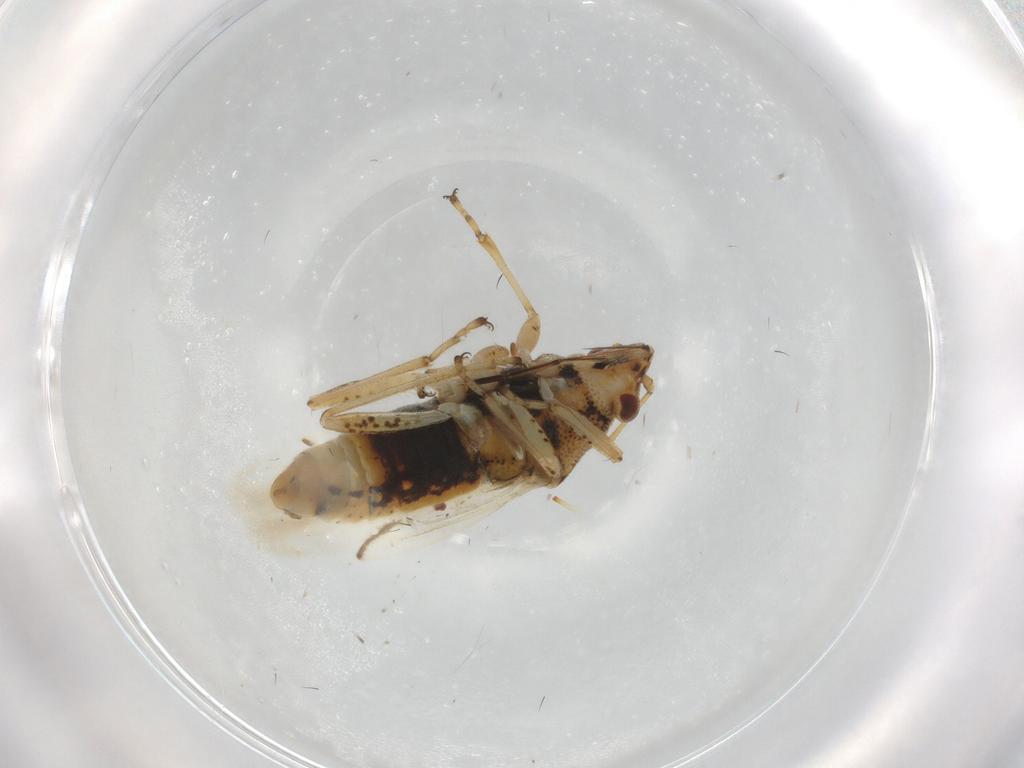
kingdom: Animalia
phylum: Arthropoda
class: Insecta
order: Hemiptera
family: Lygaeidae
